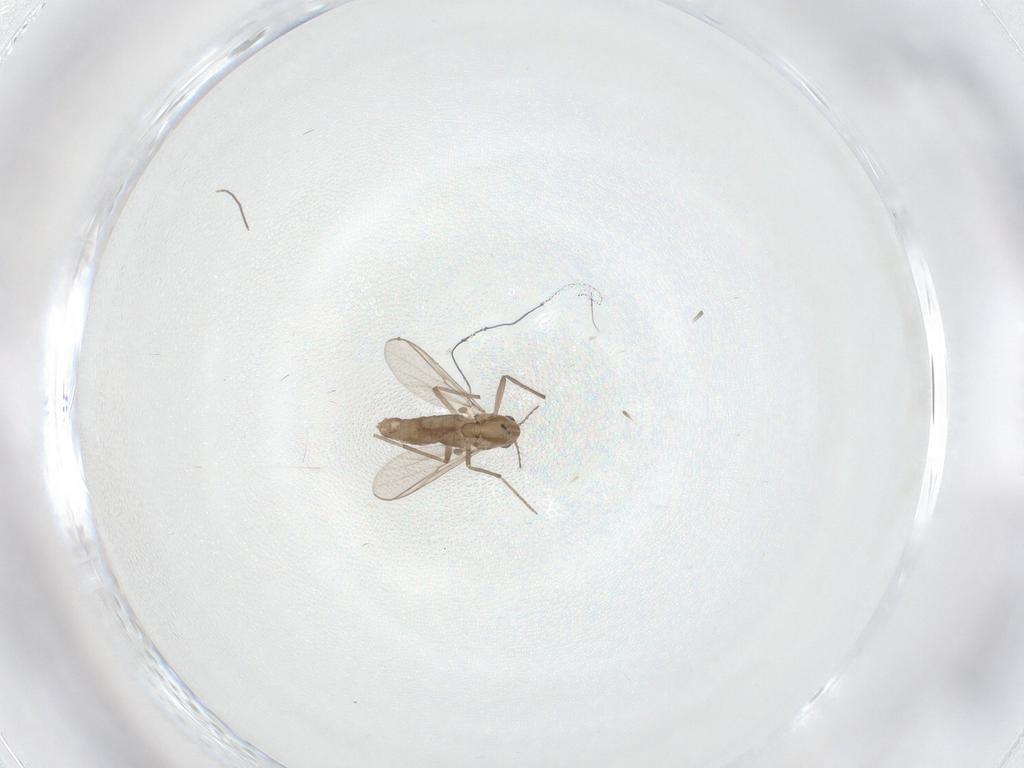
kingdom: Animalia
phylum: Arthropoda
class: Insecta
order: Diptera
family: Chironomidae
